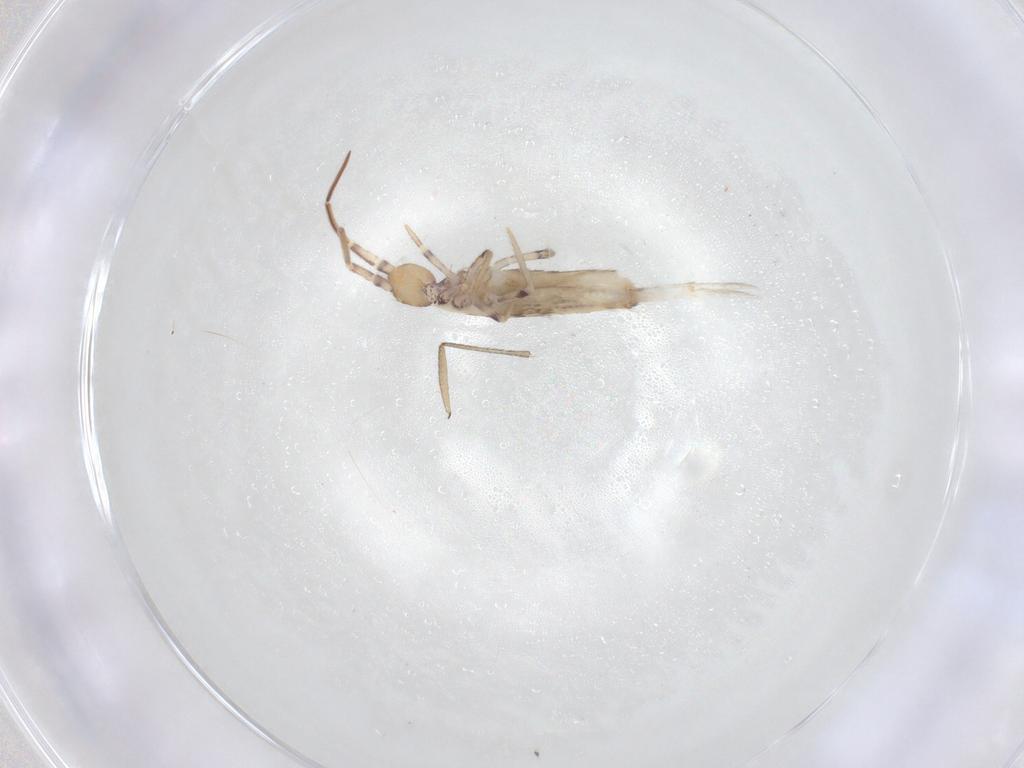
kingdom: Animalia
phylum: Arthropoda
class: Collembola
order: Entomobryomorpha
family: Entomobryidae
